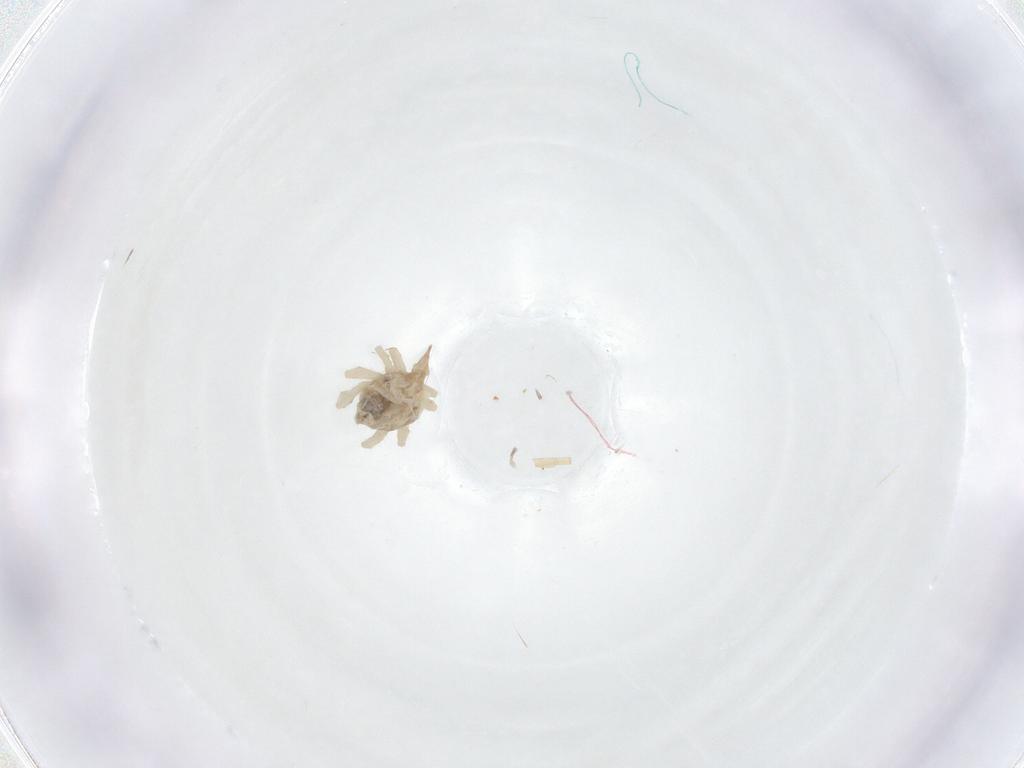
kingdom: Animalia
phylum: Arthropoda
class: Arachnida
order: Trombidiformes
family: Bdellidae
